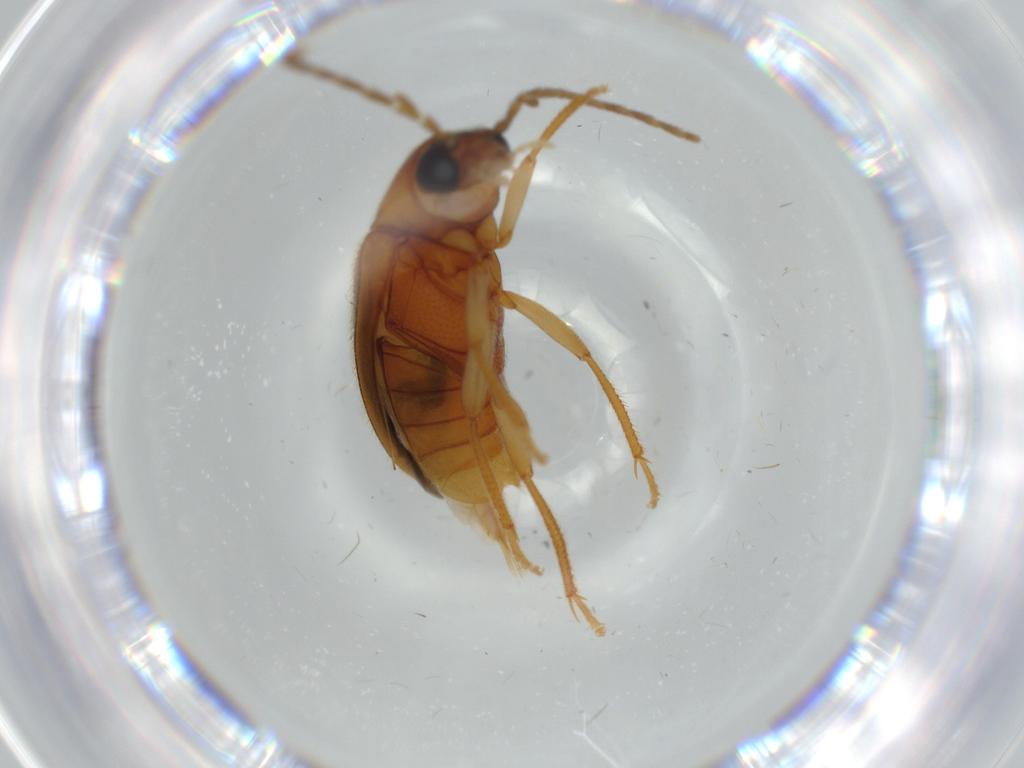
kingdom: Animalia
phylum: Arthropoda
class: Insecta
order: Coleoptera
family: Ptilodactylidae
